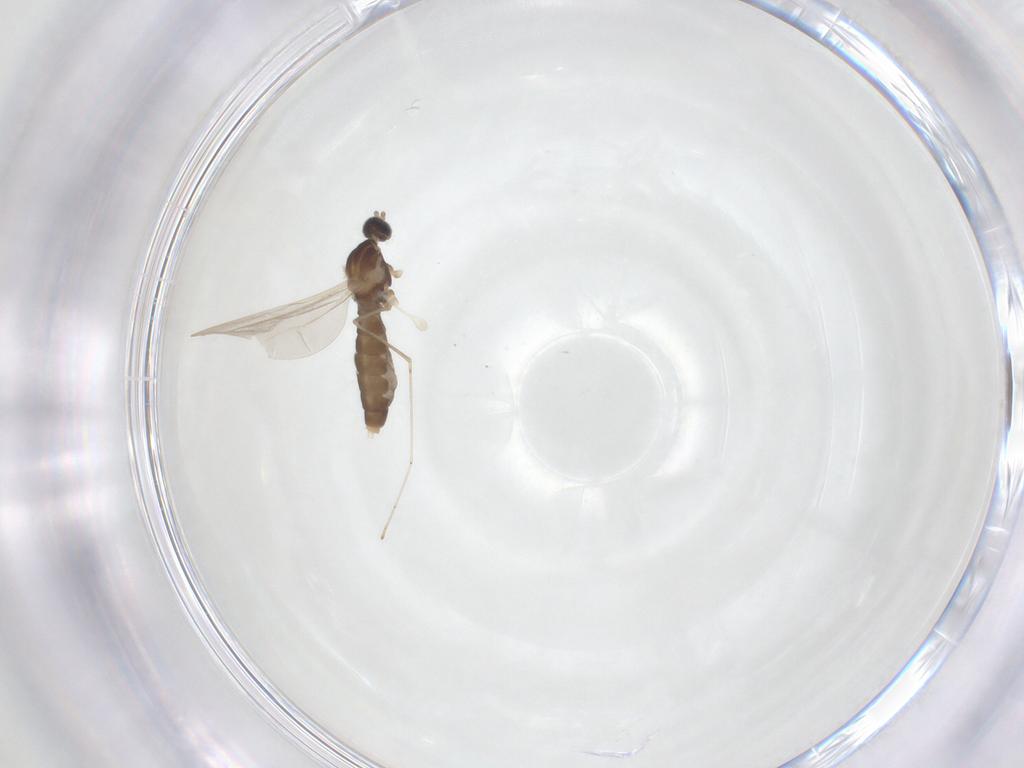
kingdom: Animalia
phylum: Arthropoda
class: Insecta
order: Diptera
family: Cecidomyiidae
